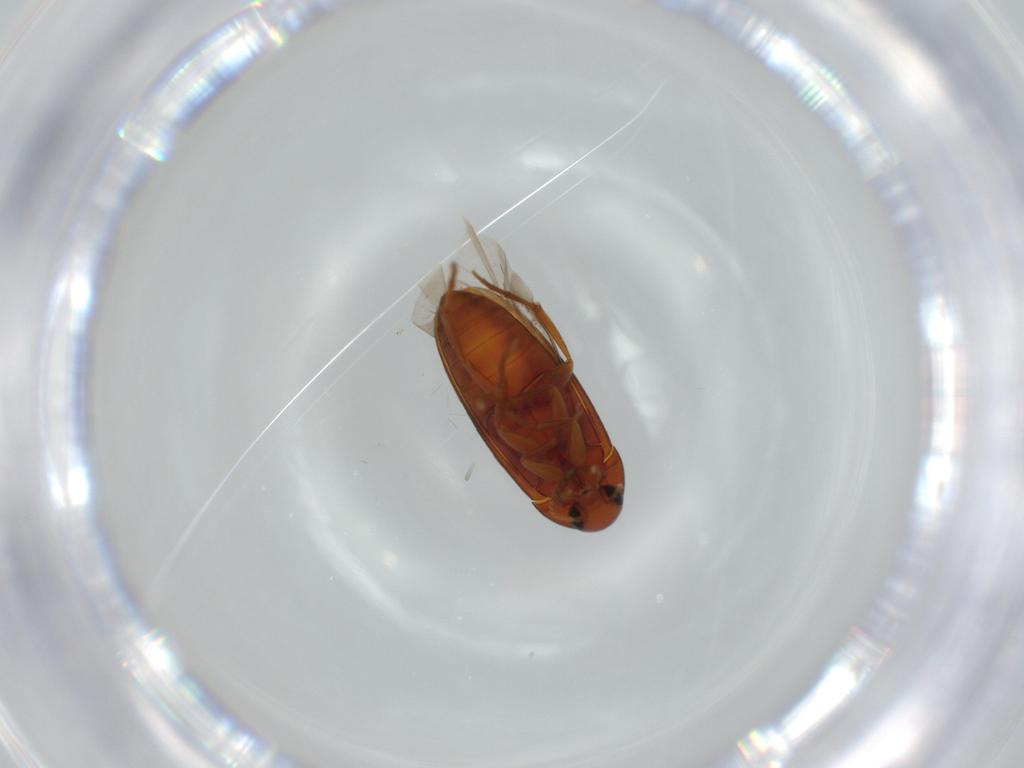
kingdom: Animalia
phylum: Arthropoda
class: Insecta
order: Coleoptera
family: Scraptiidae
